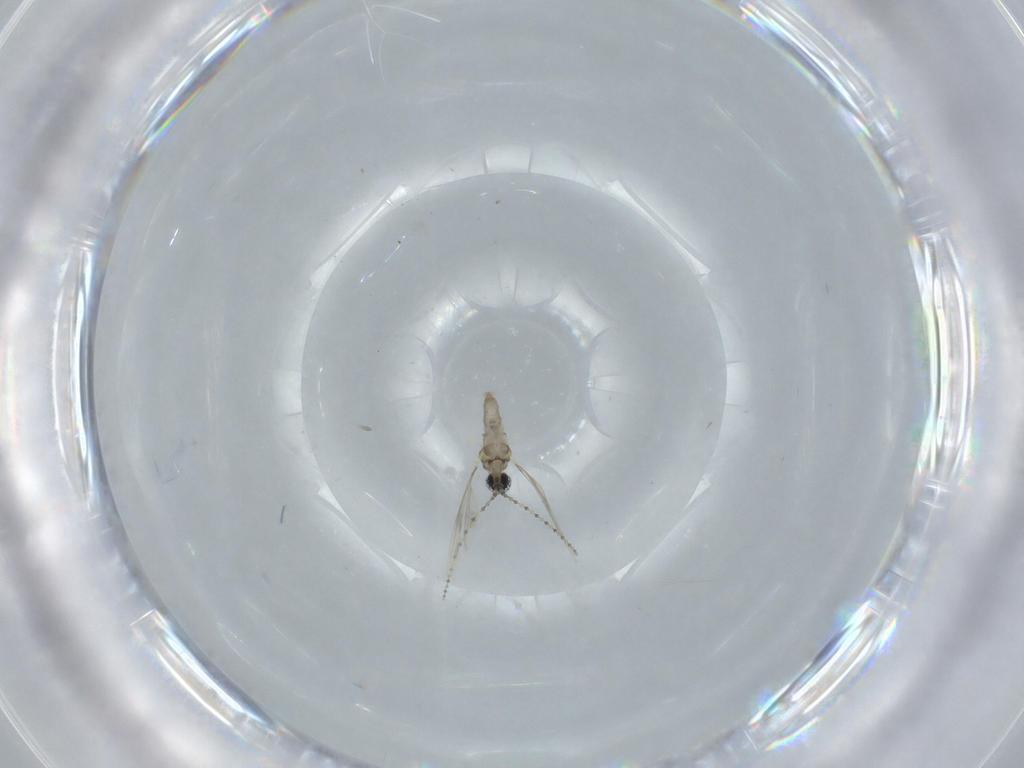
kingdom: Animalia
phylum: Arthropoda
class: Insecta
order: Diptera
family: Cecidomyiidae
